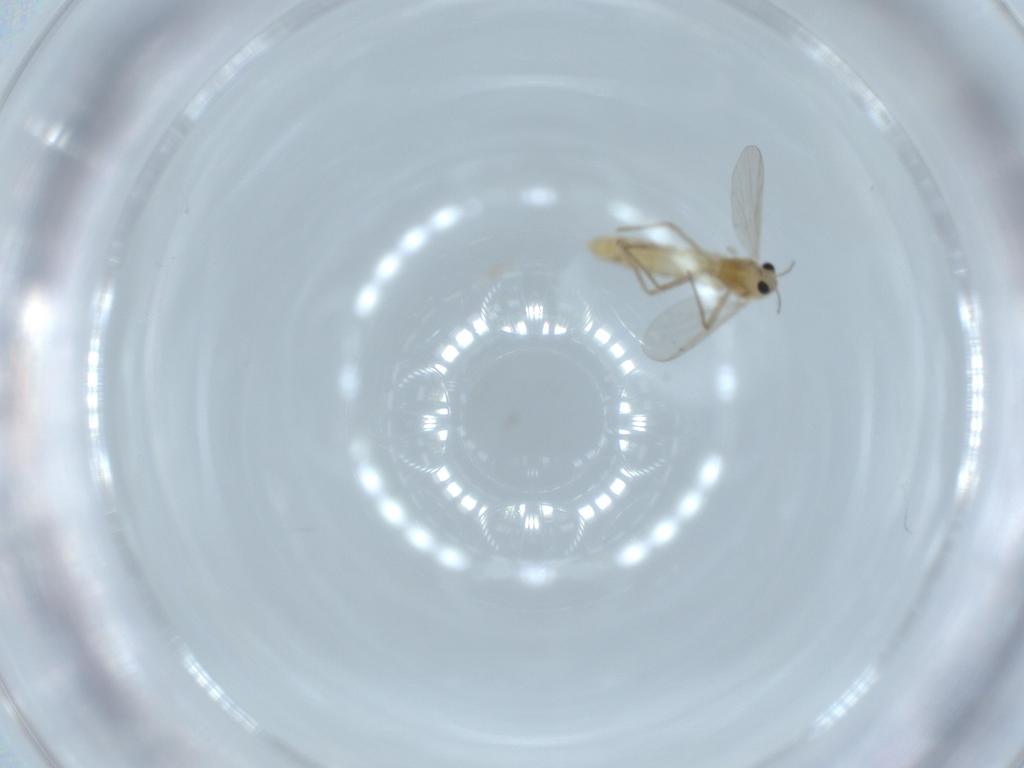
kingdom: Animalia
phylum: Arthropoda
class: Insecta
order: Diptera
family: Chironomidae
